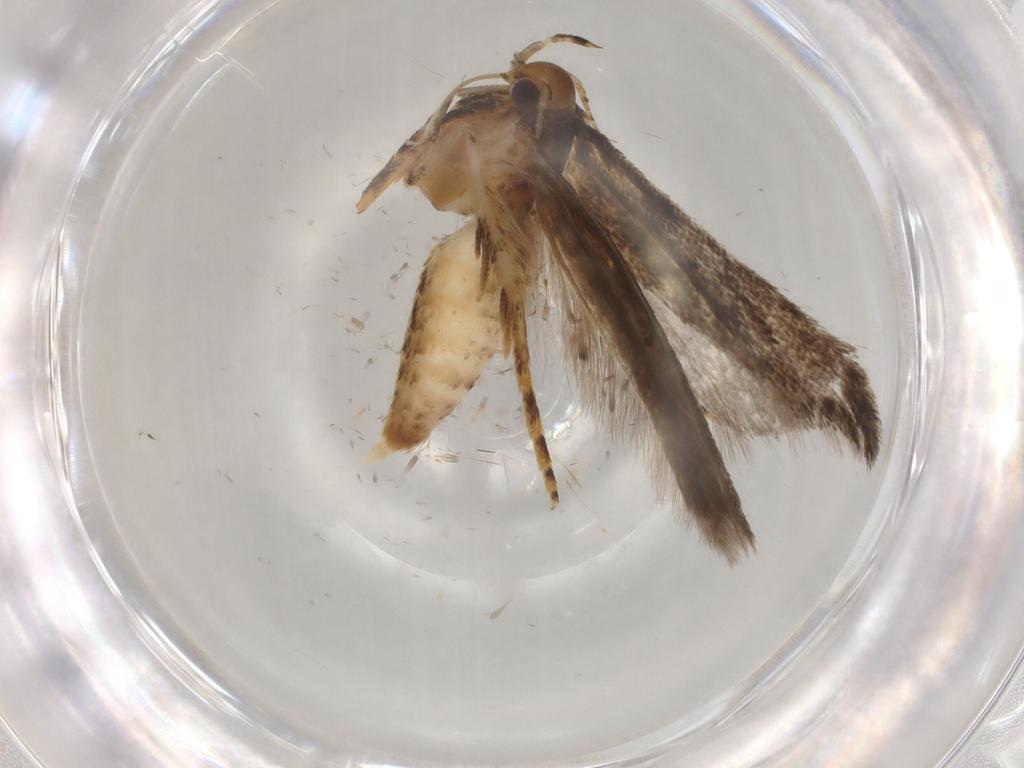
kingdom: Animalia
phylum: Arthropoda
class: Insecta
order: Lepidoptera
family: Gelechiidae
